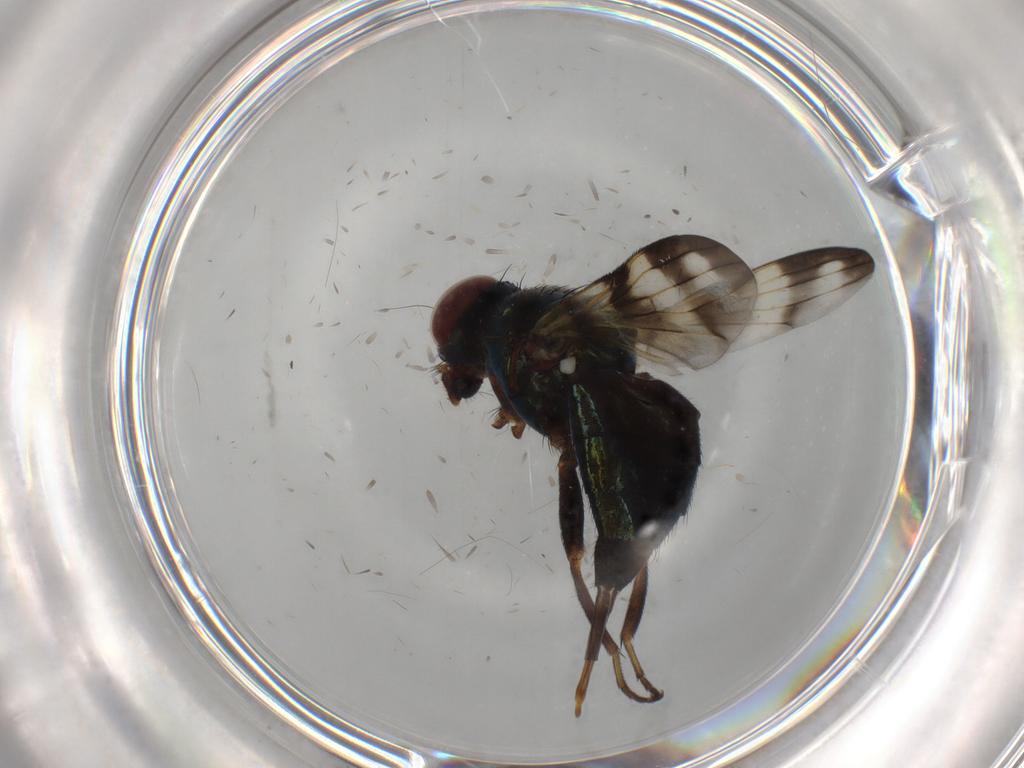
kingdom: Animalia
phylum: Arthropoda
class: Insecta
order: Diptera
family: Ulidiidae
